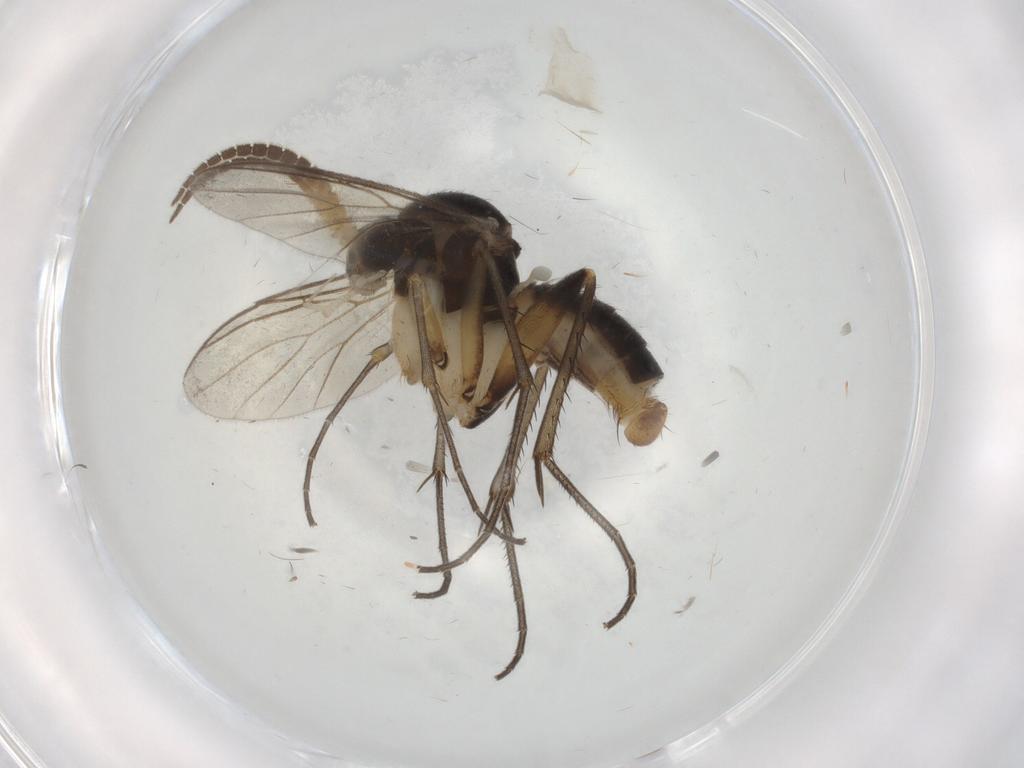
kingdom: Animalia
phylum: Arthropoda
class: Insecta
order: Diptera
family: Mycetophilidae
